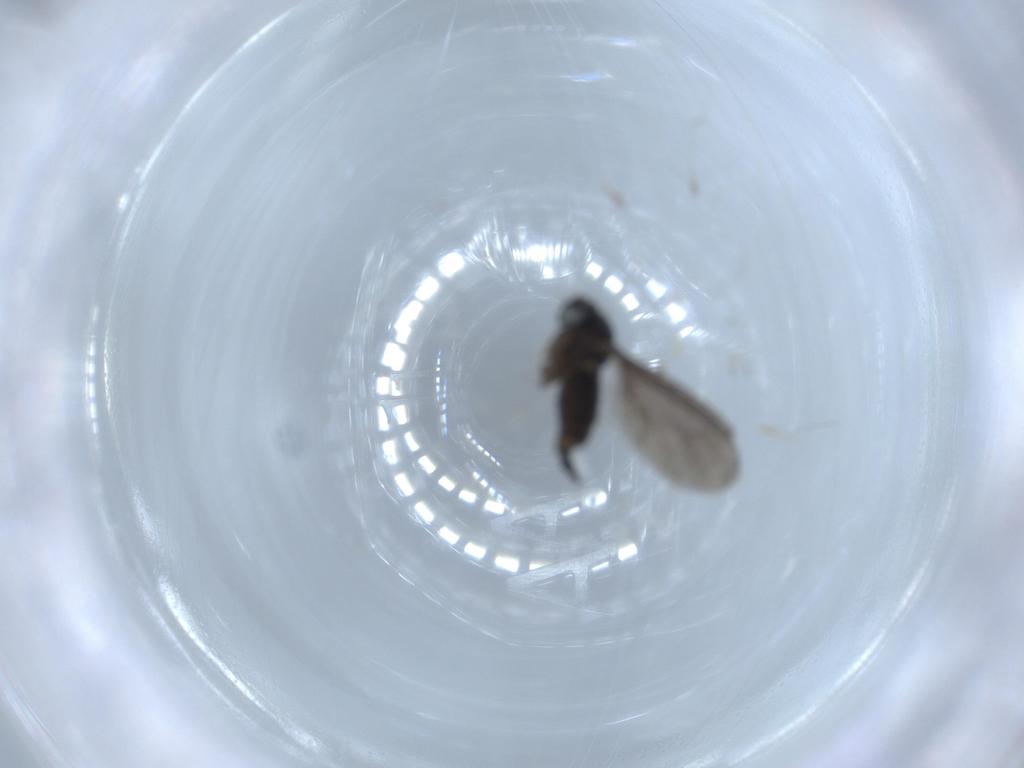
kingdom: Animalia
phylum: Arthropoda
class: Insecta
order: Diptera
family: Sciaridae
